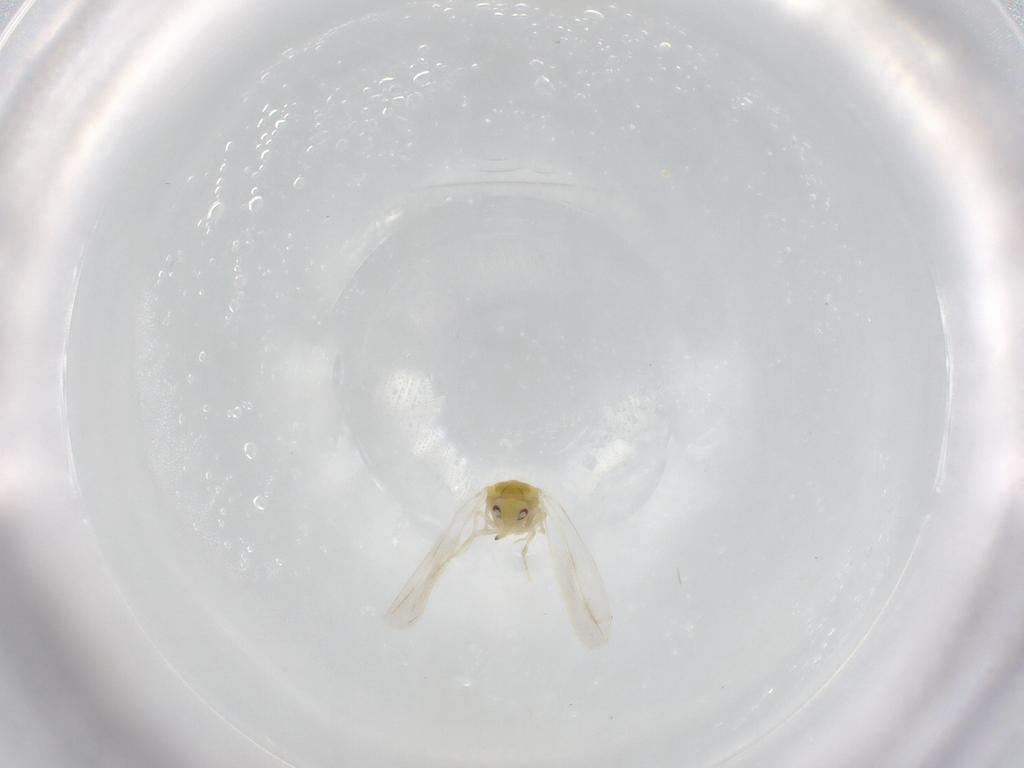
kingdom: Animalia
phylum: Arthropoda
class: Insecta
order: Hemiptera
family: Aleyrodidae
